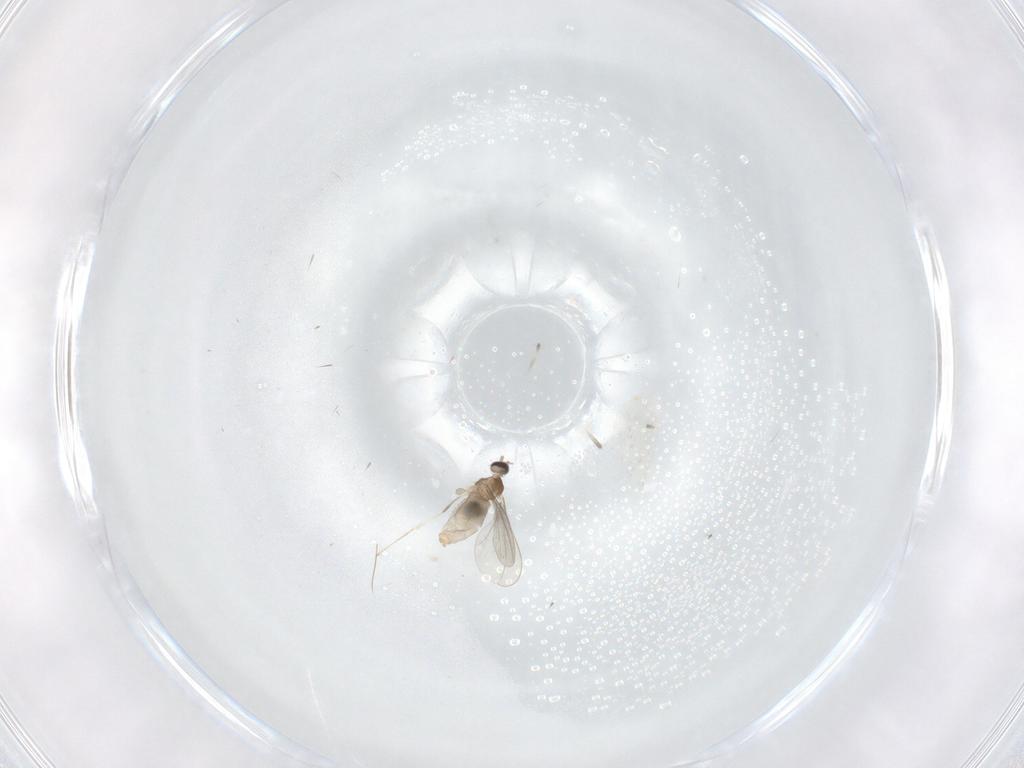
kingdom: Animalia
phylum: Arthropoda
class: Insecta
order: Diptera
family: Cecidomyiidae
